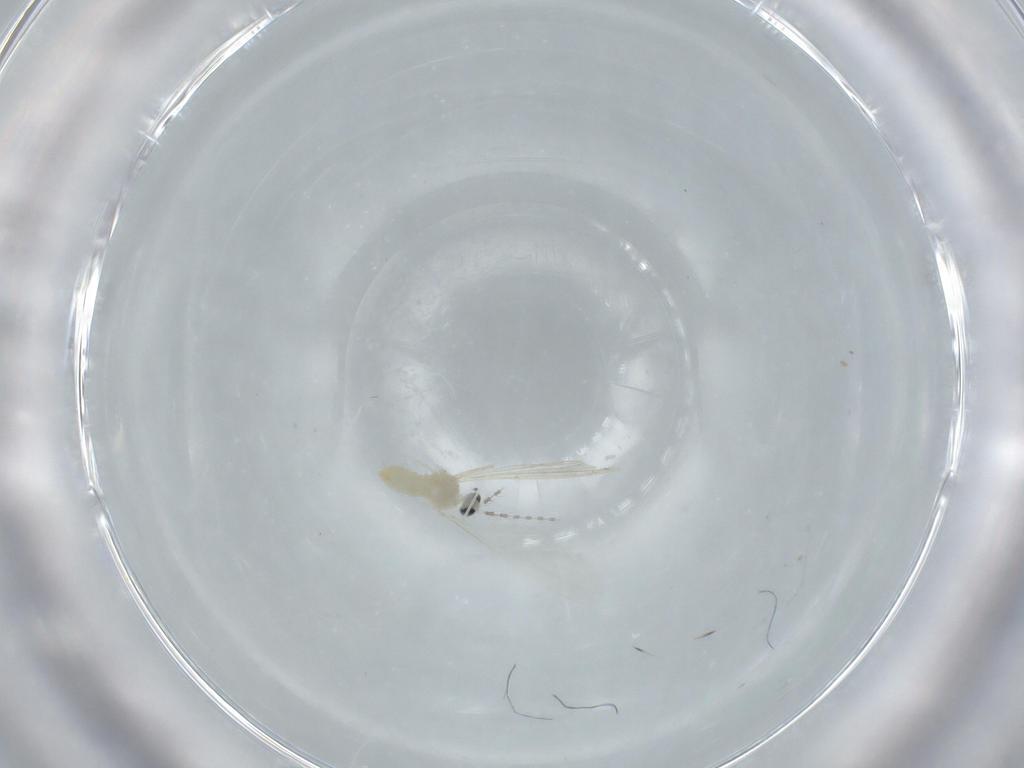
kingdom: Animalia
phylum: Arthropoda
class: Insecta
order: Diptera
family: Cecidomyiidae
